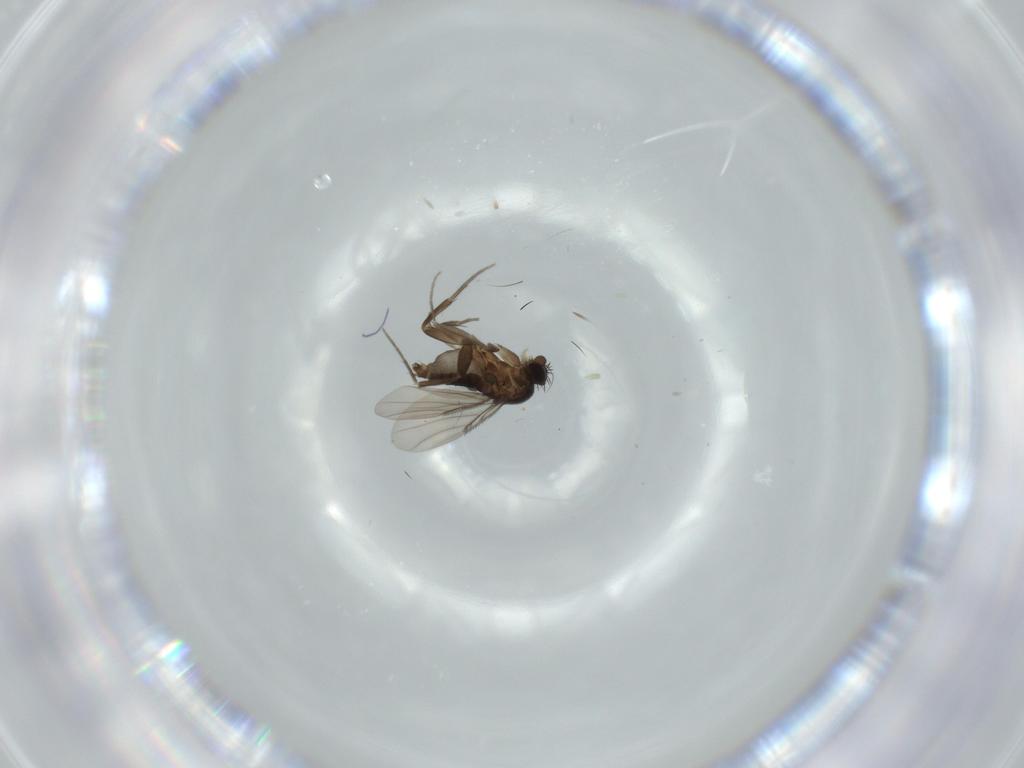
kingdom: Animalia
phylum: Arthropoda
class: Insecta
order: Diptera
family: Phoridae
